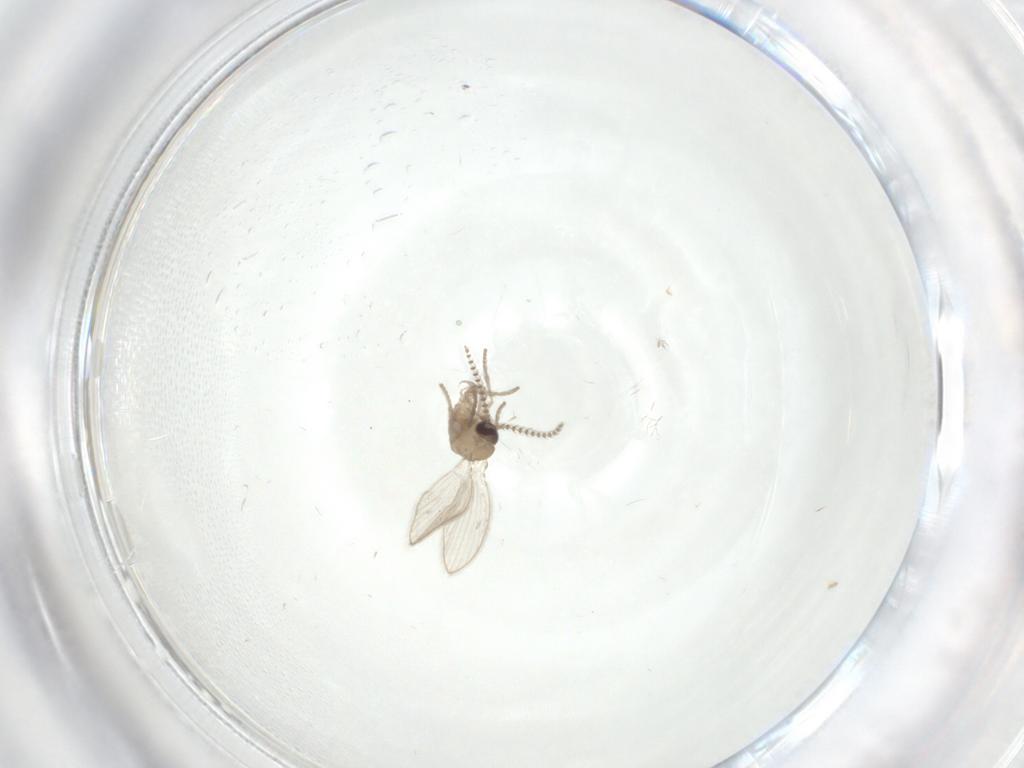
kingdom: Animalia
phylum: Arthropoda
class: Insecta
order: Diptera
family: Psychodidae
